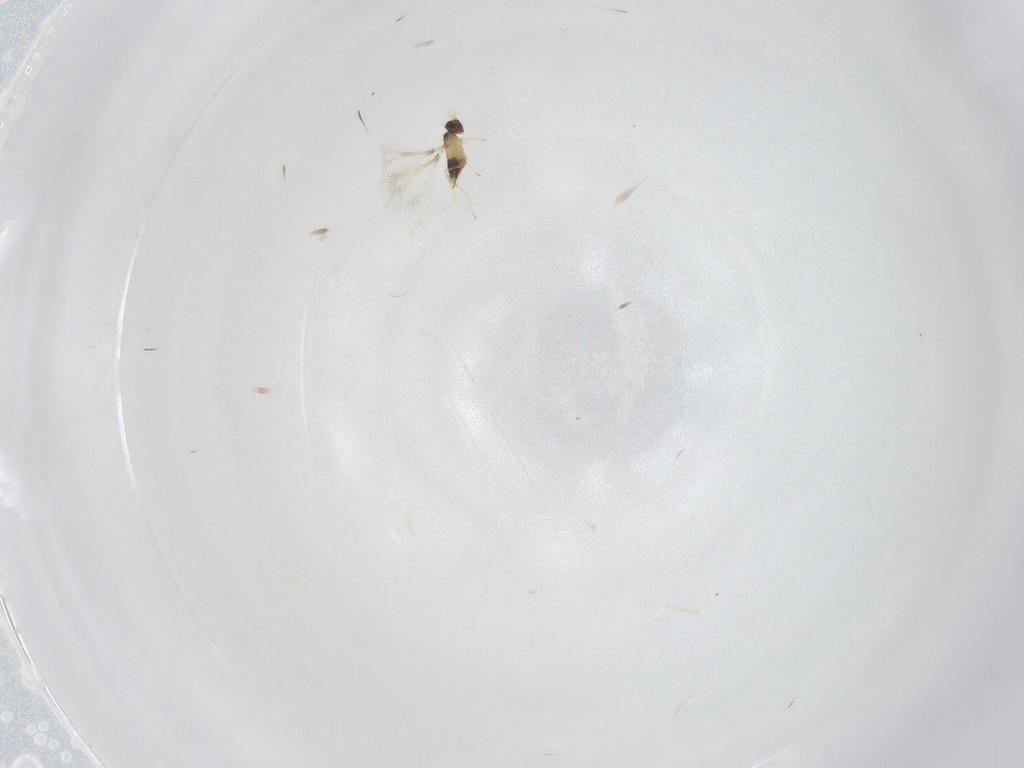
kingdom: Animalia
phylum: Arthropoda
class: Insecta
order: Hymenoptera
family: Mymaridae
